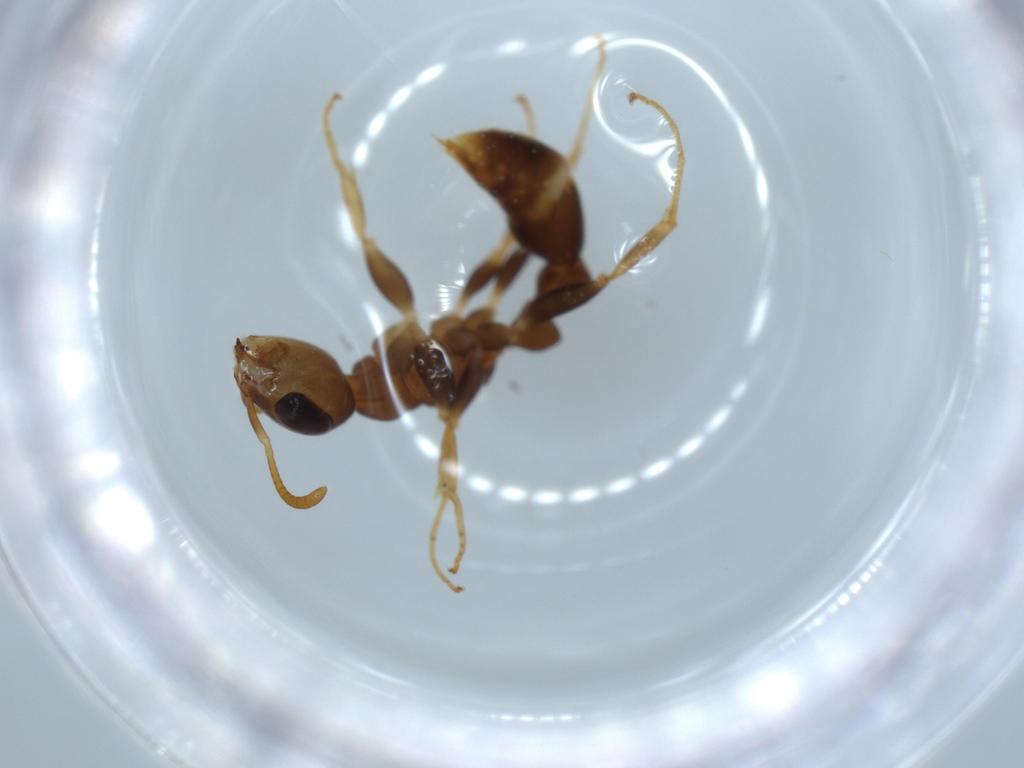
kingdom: Animalia
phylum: Arthropoda
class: Insecta
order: Hymenoptera
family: Formicidae
